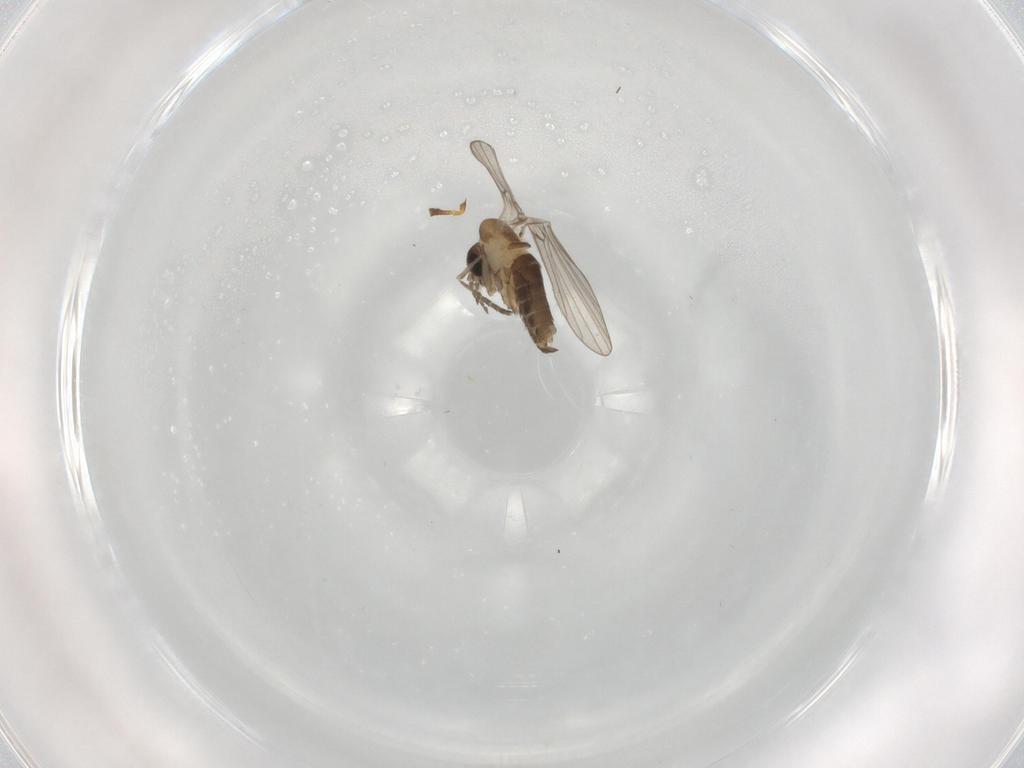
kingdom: Animalia
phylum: Arthropoda
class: Insecta
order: Diptera
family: Psychodidae
